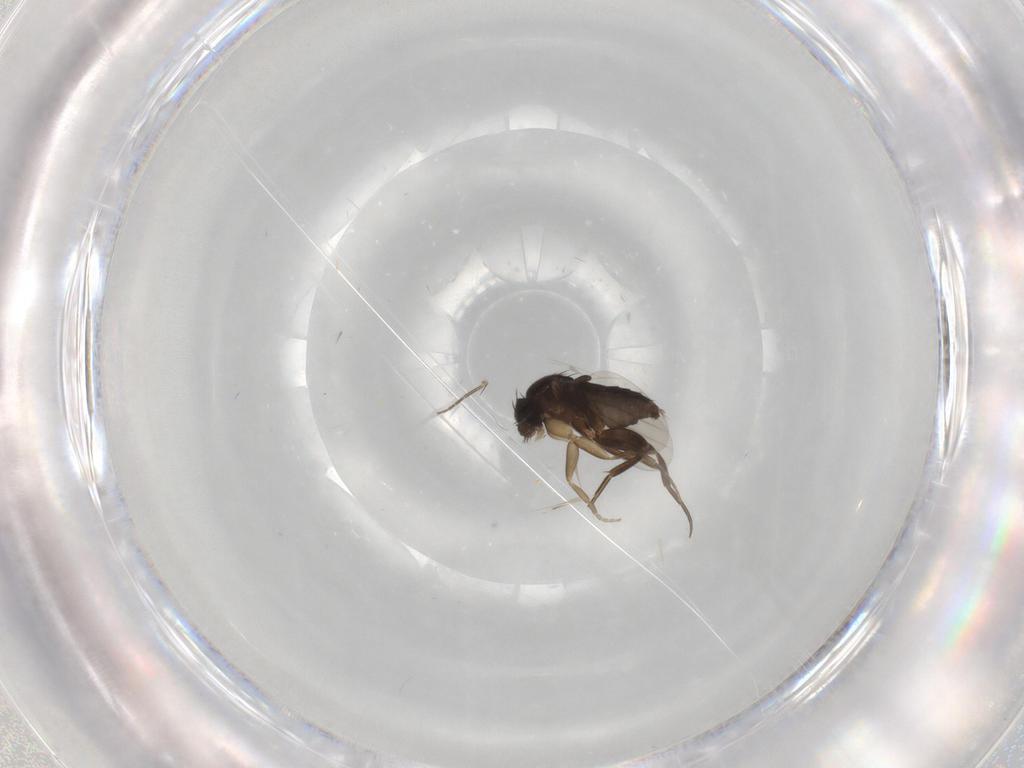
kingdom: Animalia
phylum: Arthropoda
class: Insecta
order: Diptera
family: Phoridae
